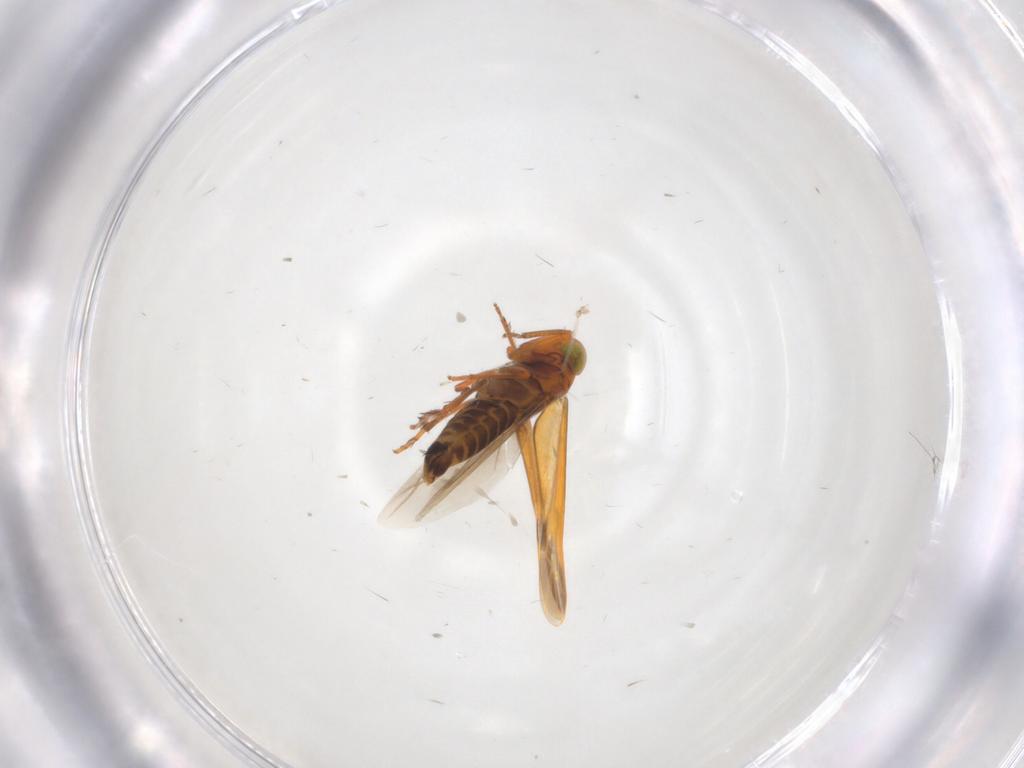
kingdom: Animalia
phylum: Arthropoda
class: Insecta
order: Hemiptera
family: Cicadellidae
